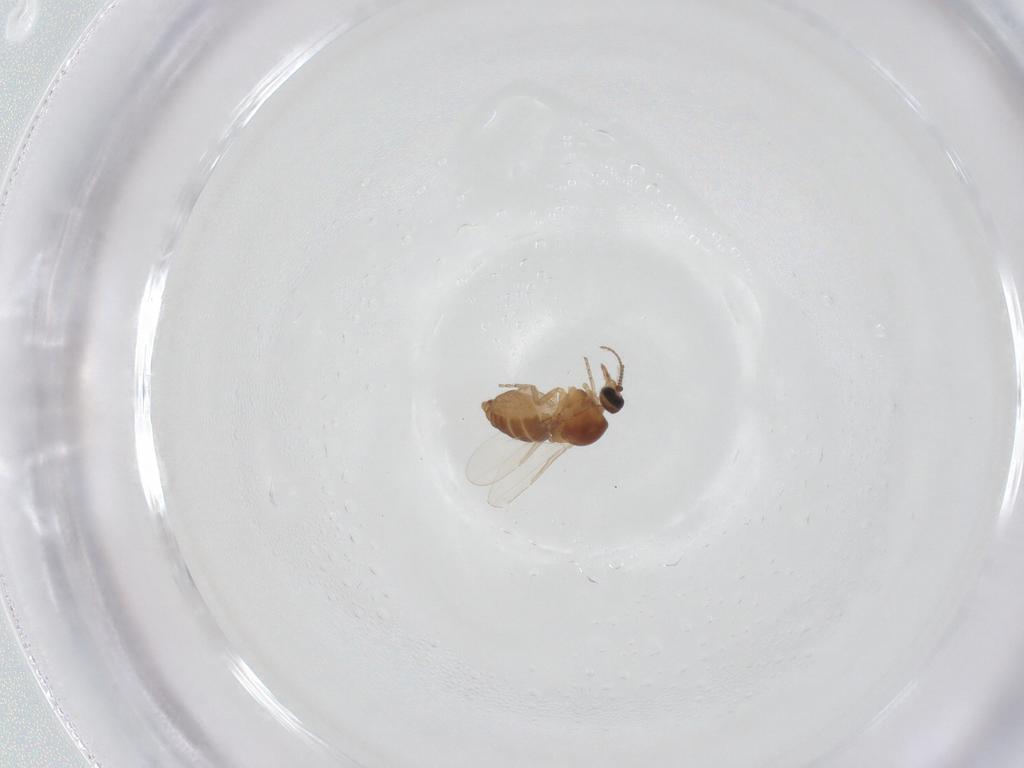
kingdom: Animalia
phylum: Arthropoda
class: Insecta
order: Diptera
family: Ceratopogonidae
